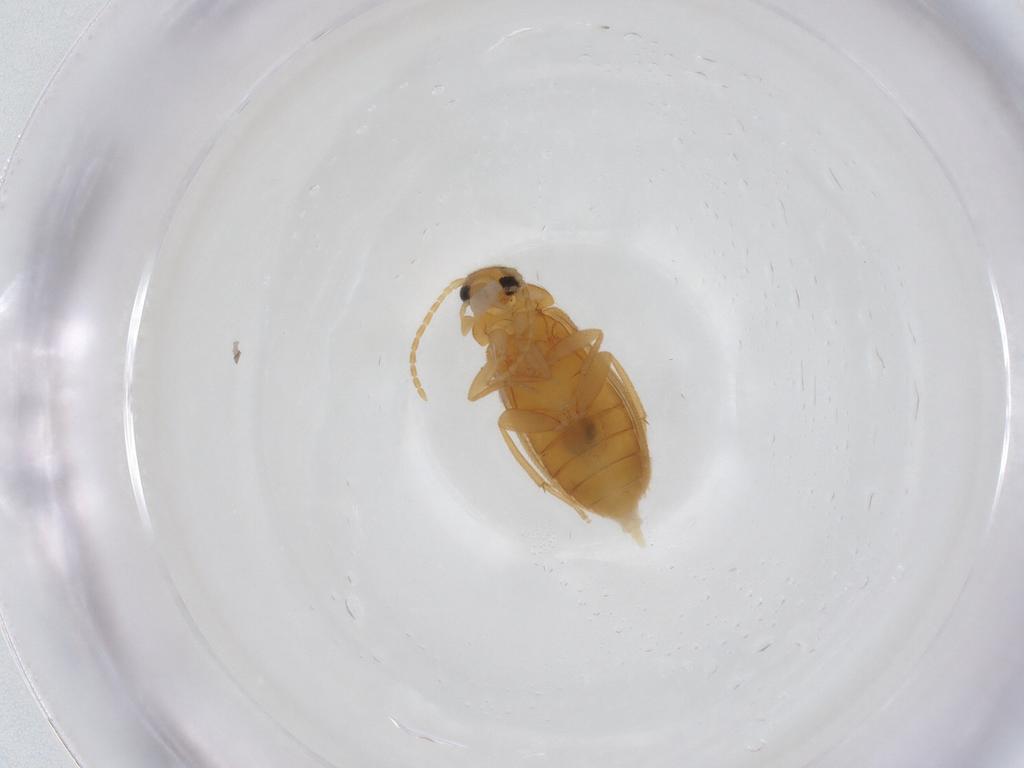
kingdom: Animalia
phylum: Arthropoda
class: Insecta
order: Coleoptera
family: Scraptiidae
